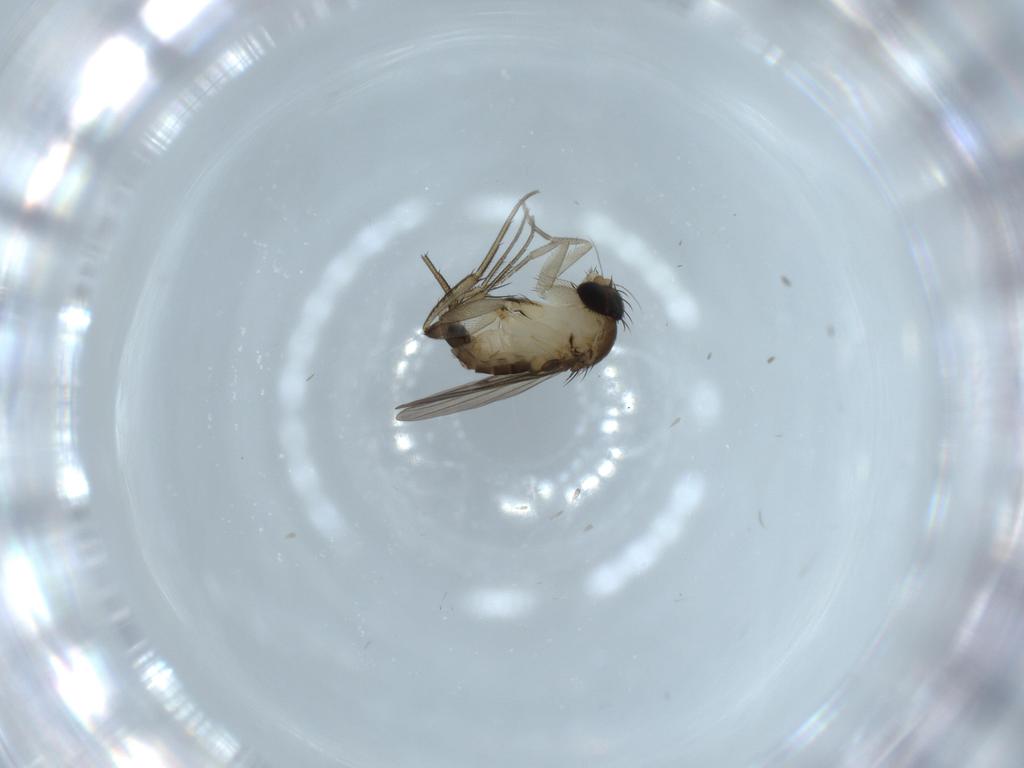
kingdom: Animalia
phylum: Arthropoda
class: Insecta
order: Diptera
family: Phoridae
